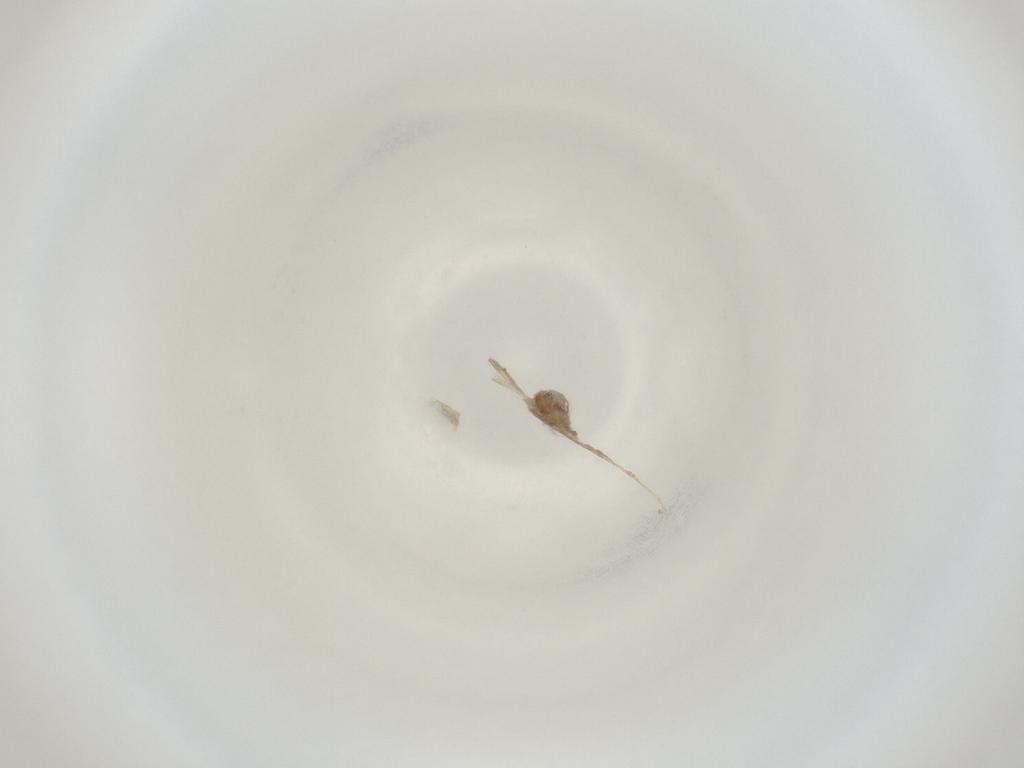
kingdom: Animalia
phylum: Arthropoda
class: Insecta
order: Diptera
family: Cecidomyiidae
